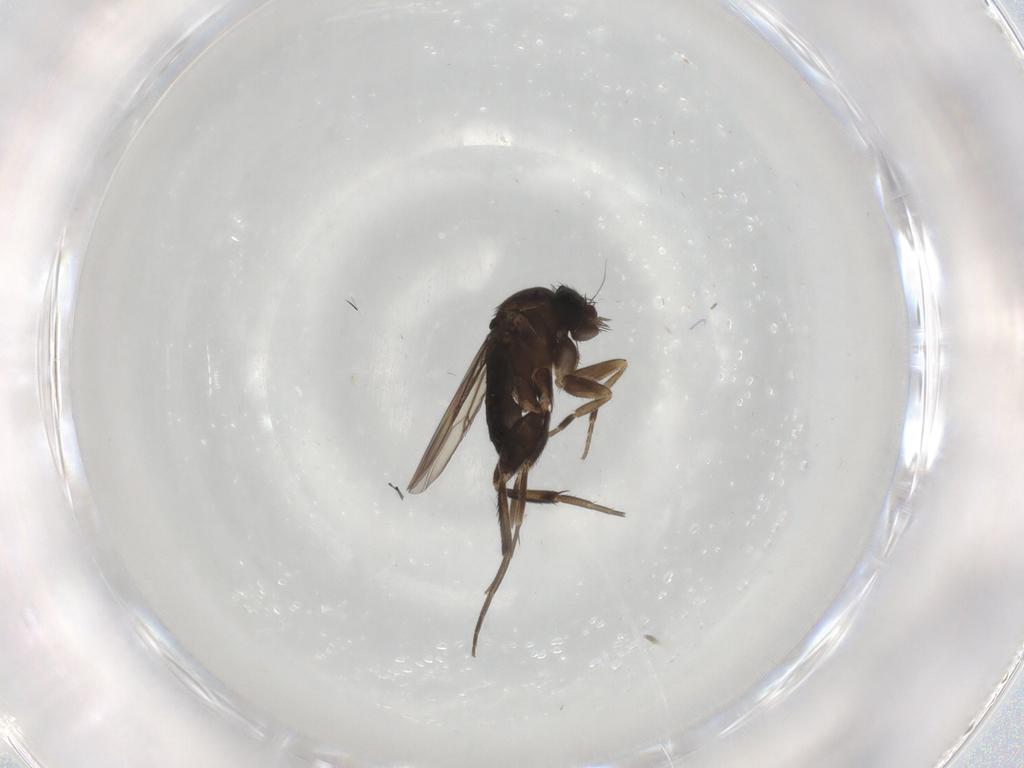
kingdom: Animalia
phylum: Arthropoda
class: Insecta
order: Diptera
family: Phoridae
